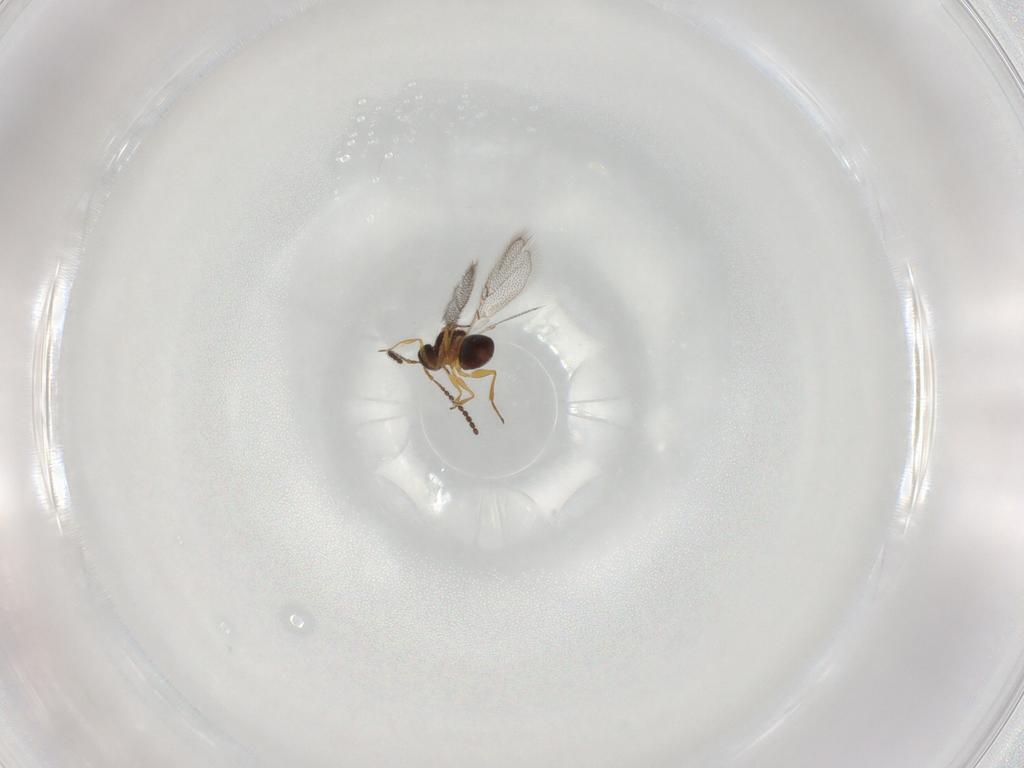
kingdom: Animalia
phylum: Arthropoda
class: Insecta
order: Hymenoptera
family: Figitidae
